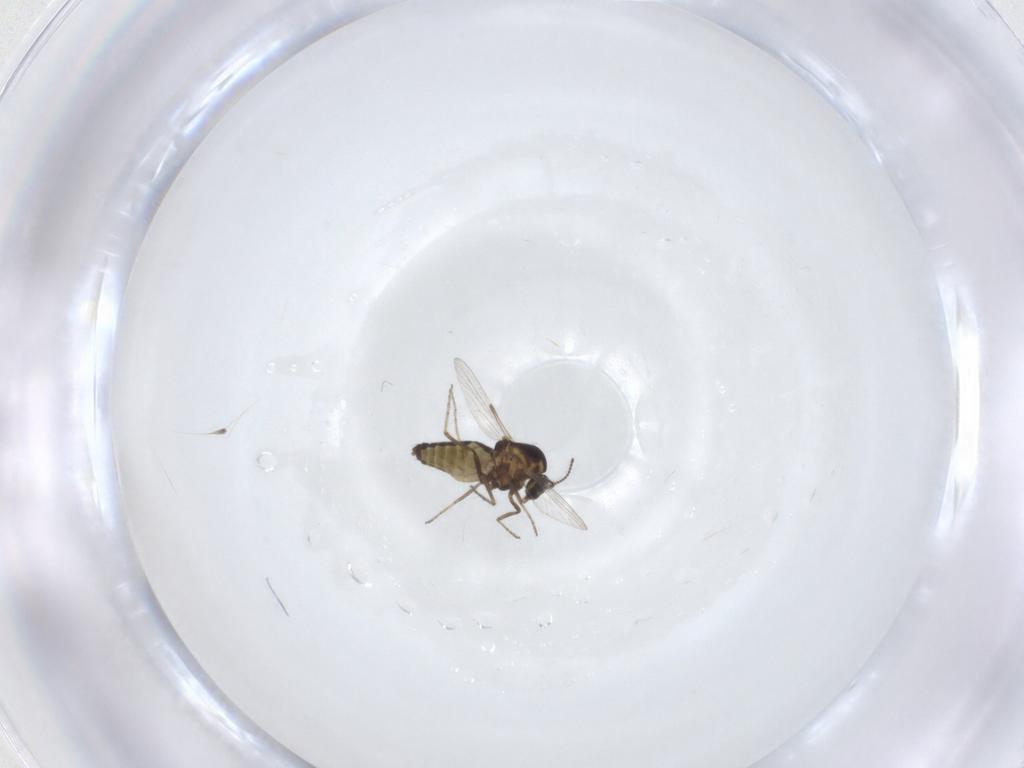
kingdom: Animalia
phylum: Arthropoda
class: Insecta
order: Diptera
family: Ceratopogonidae
